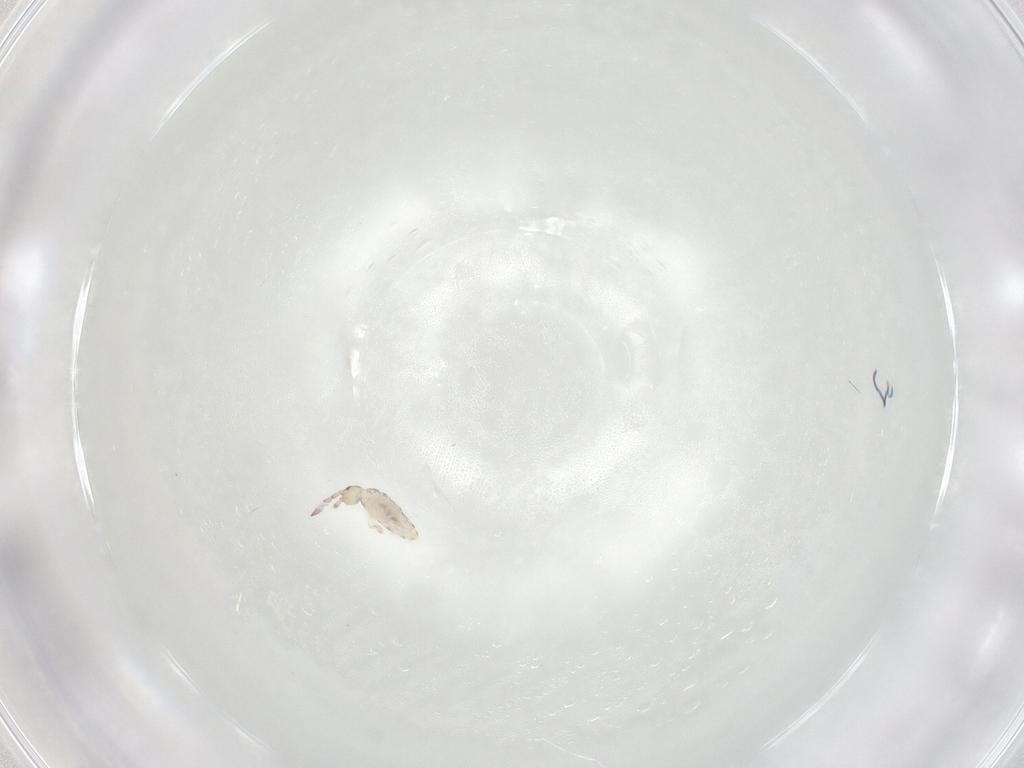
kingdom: Animalia
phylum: Arthropoda
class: Collembola
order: Entomobryomorpha
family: Entomobryidae
